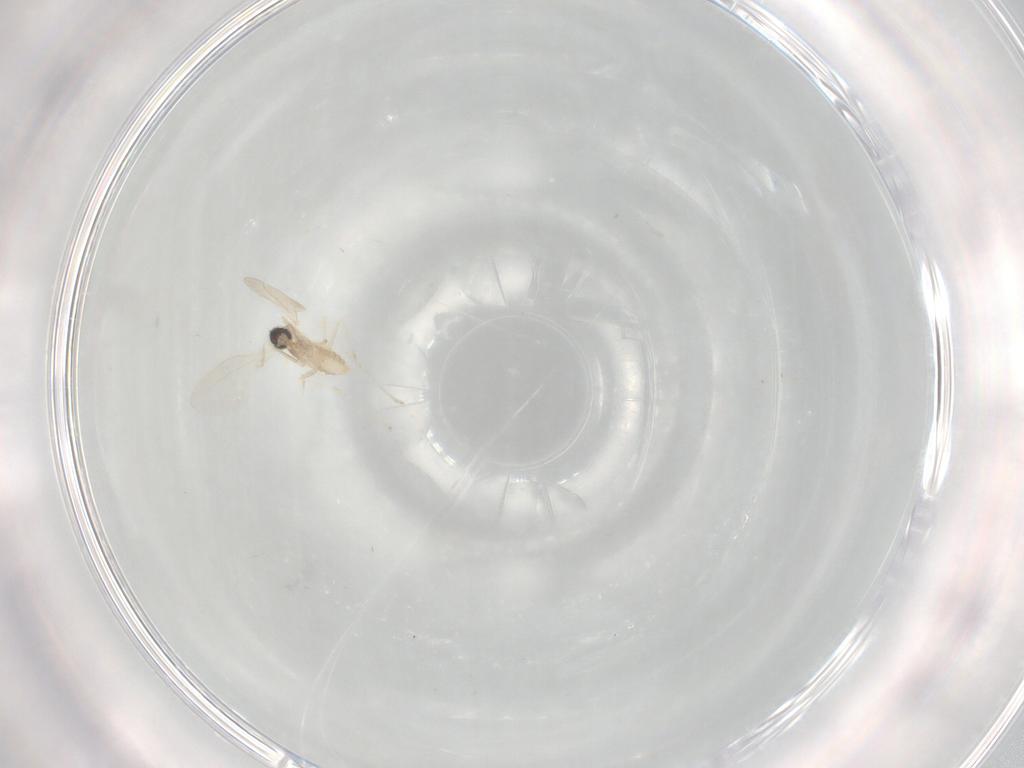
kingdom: Animalia
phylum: Arthropoda
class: Insecta
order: Diptera
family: Cecidomyiidae
